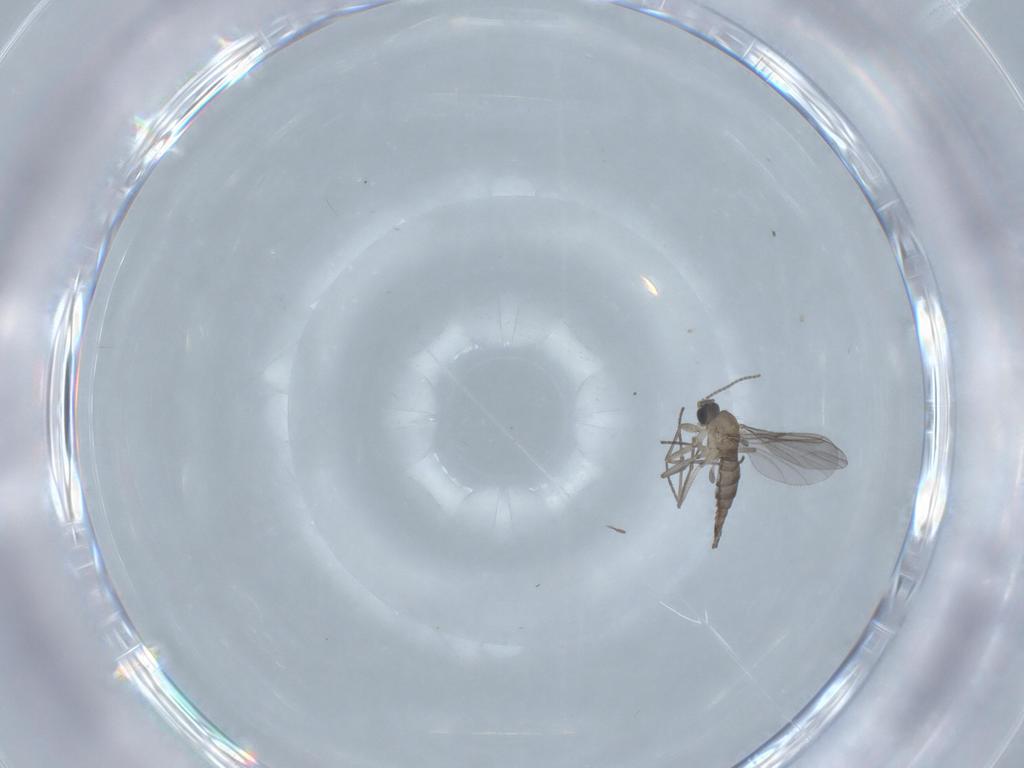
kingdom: Animalia
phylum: Arthropoda
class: Insecta
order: Diptera
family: Sciaridae
